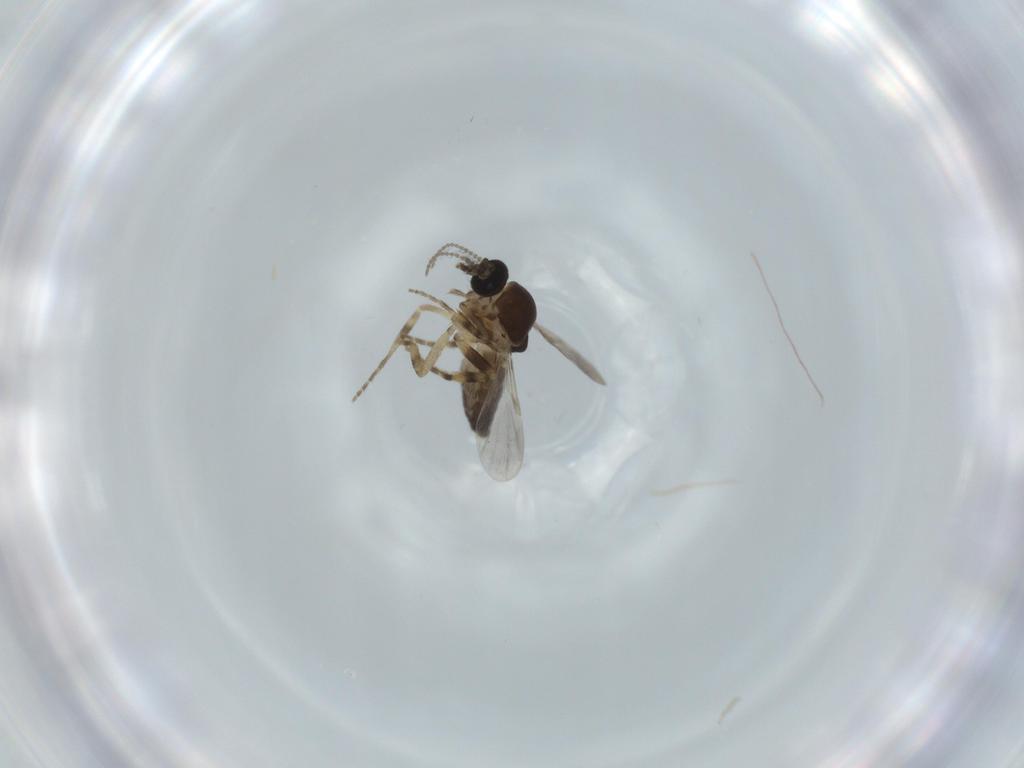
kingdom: Animalia
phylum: Arthropoda
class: Insecta
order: Diptera
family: Ceratopogonidae
